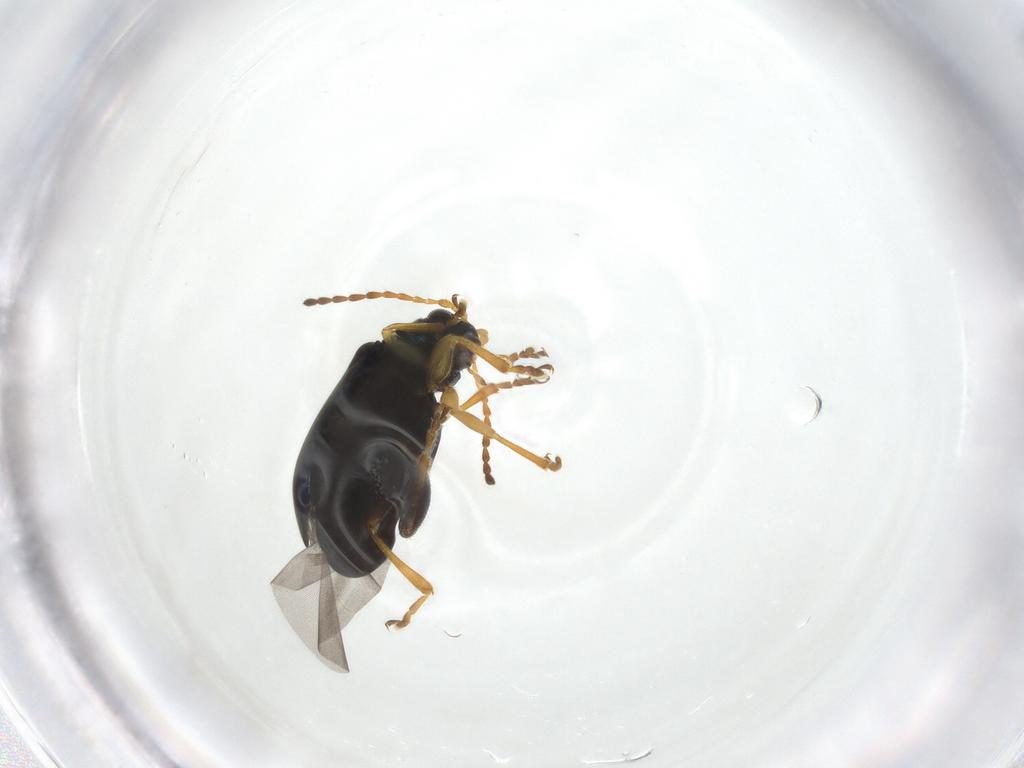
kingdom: Animalia
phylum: Arthropoda
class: Insecta
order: Coleoptera
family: Chrysomelidae
